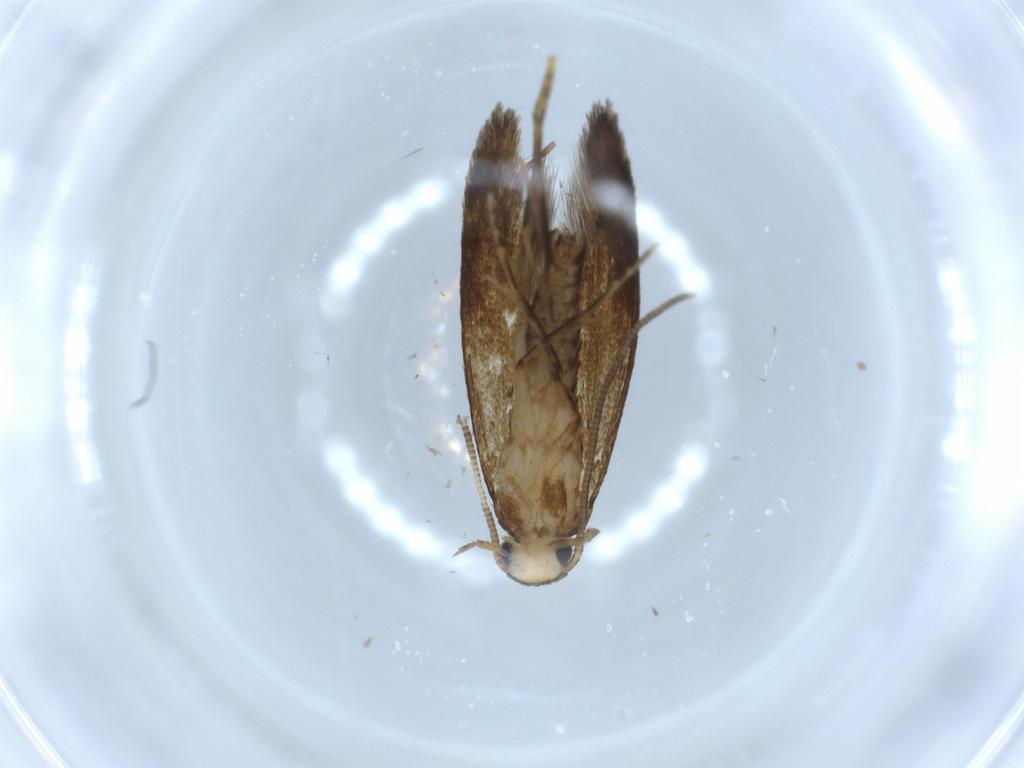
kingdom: Animalia
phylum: Arthropoda
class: Insecta
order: Lepidoptera
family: Tineidae
